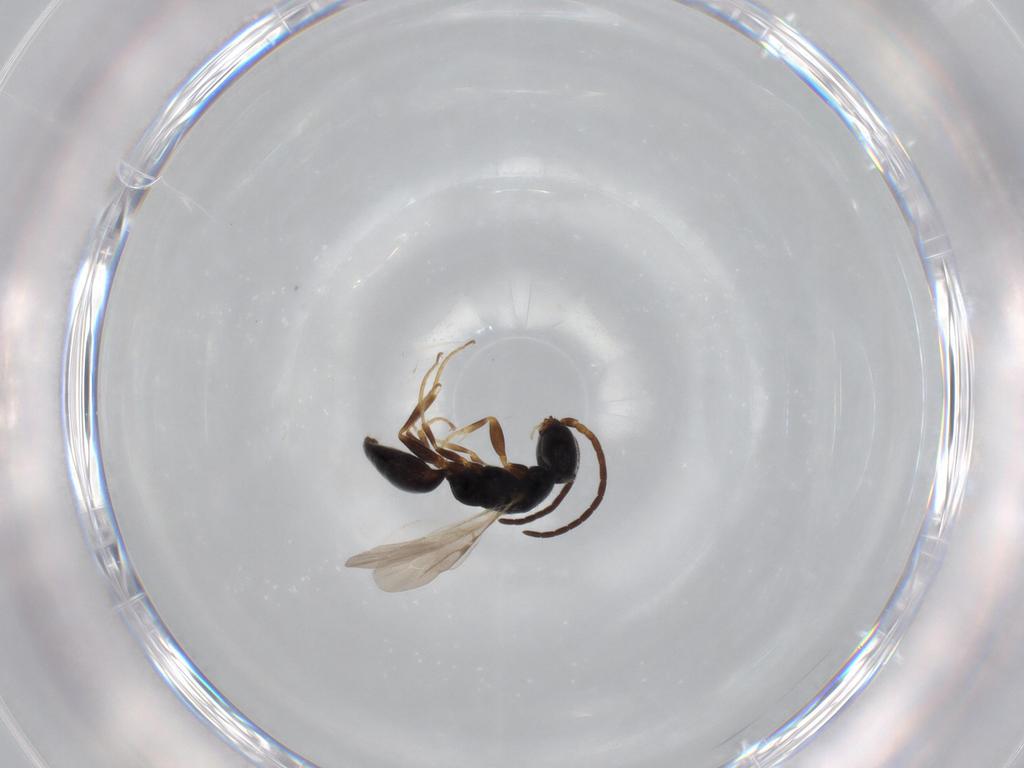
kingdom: Animalia
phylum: Arthropoda
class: Insecta
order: Hymenoptera
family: Bethylidae
